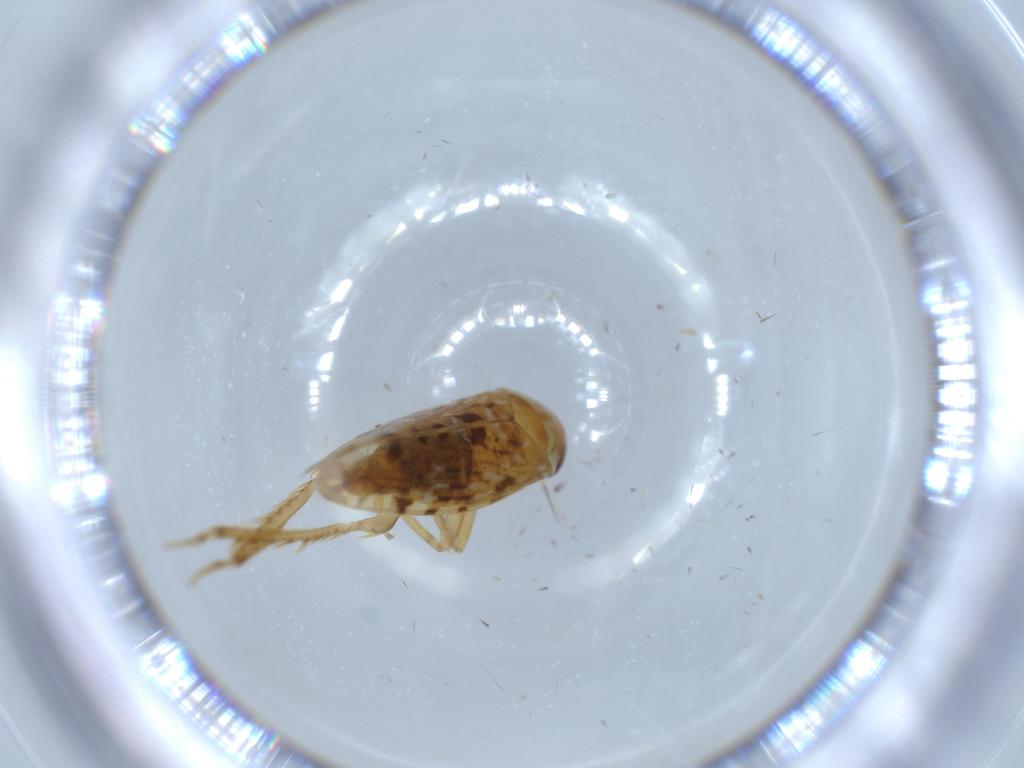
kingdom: Animalia
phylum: Arthropoda
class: Insecta
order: Hemiptera
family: Cicadellidae
